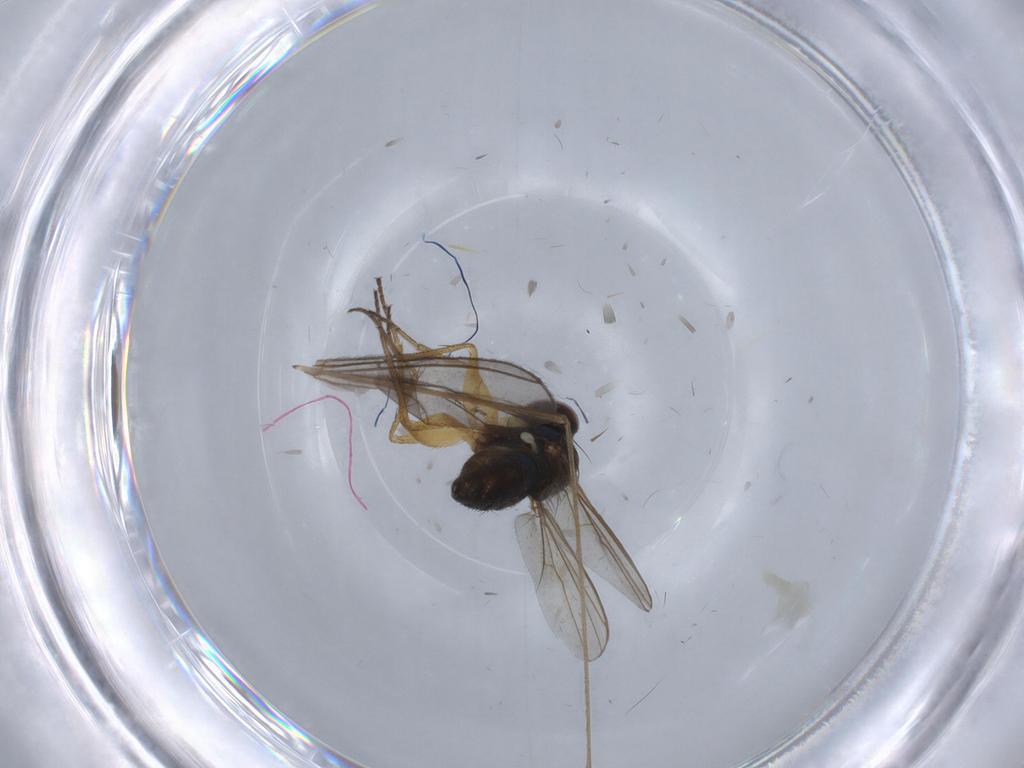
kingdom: Animalia
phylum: Arthropoda
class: Insecta
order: Diptera
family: Limoniidae
